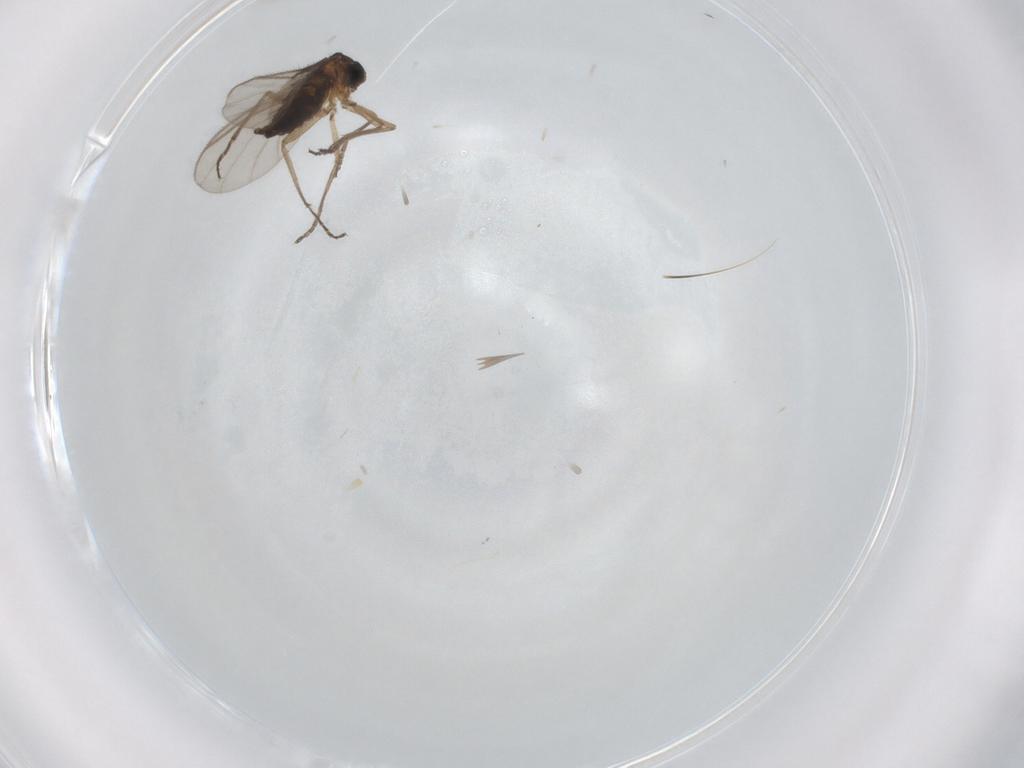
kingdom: Animalia
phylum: Arthropoda
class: Insecta
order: Diptera
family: Sciaridae
